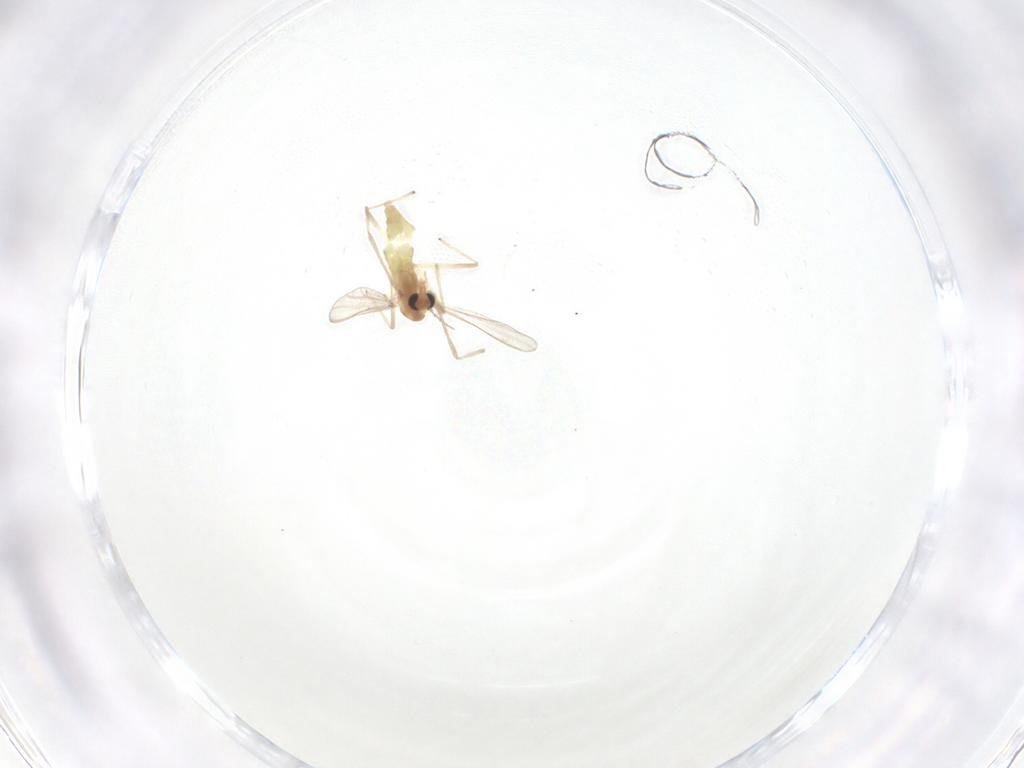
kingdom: Animalia
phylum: Arthropoda
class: Insecta
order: Diptera
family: Chironomidae
